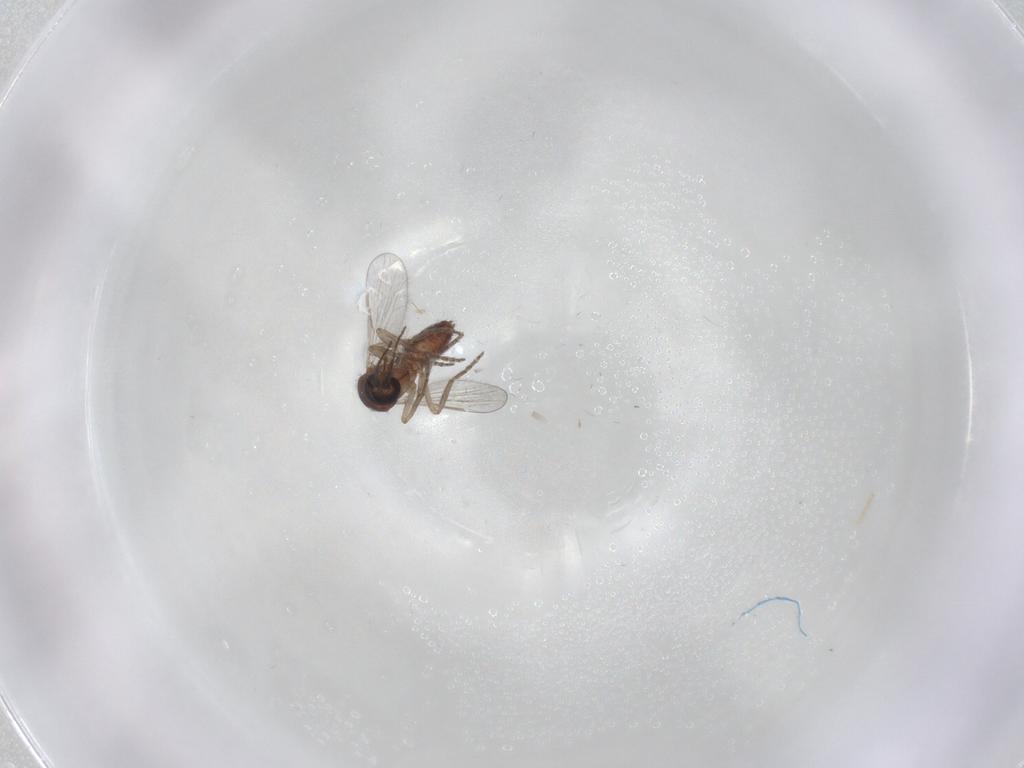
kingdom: Animalia
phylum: Arthropoda
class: Insecta
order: Diptera
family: Ceratopogonidae
